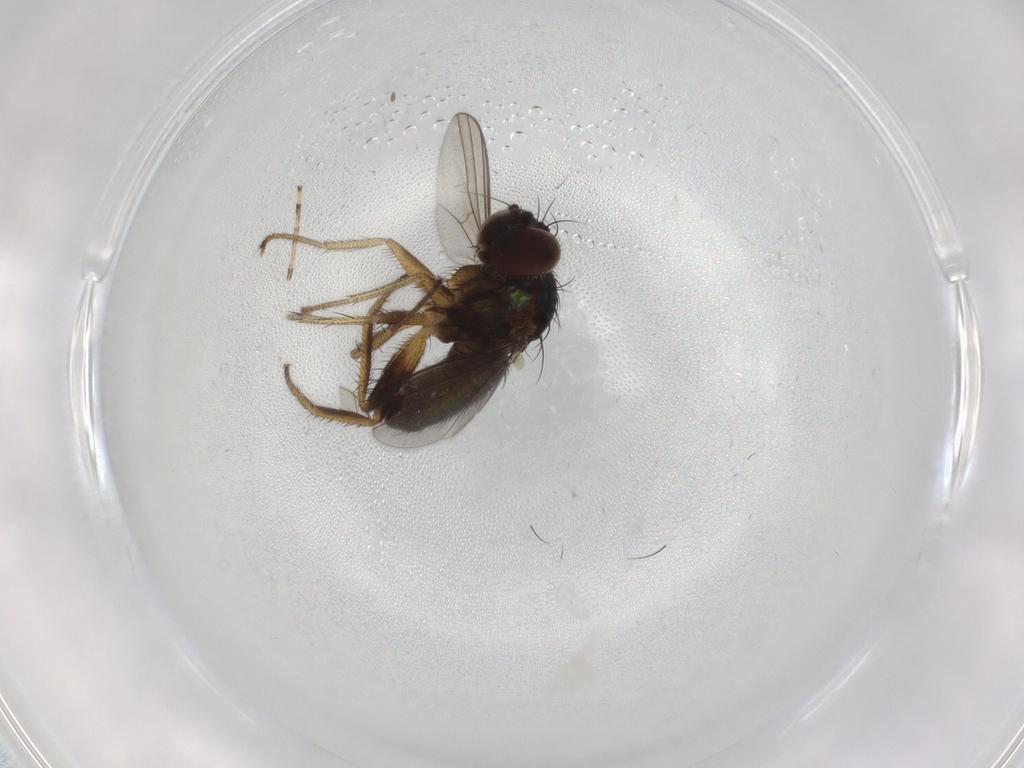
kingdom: Animalia
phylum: Arthropoda
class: Insecta
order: Diptera
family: Dolichopodidae
